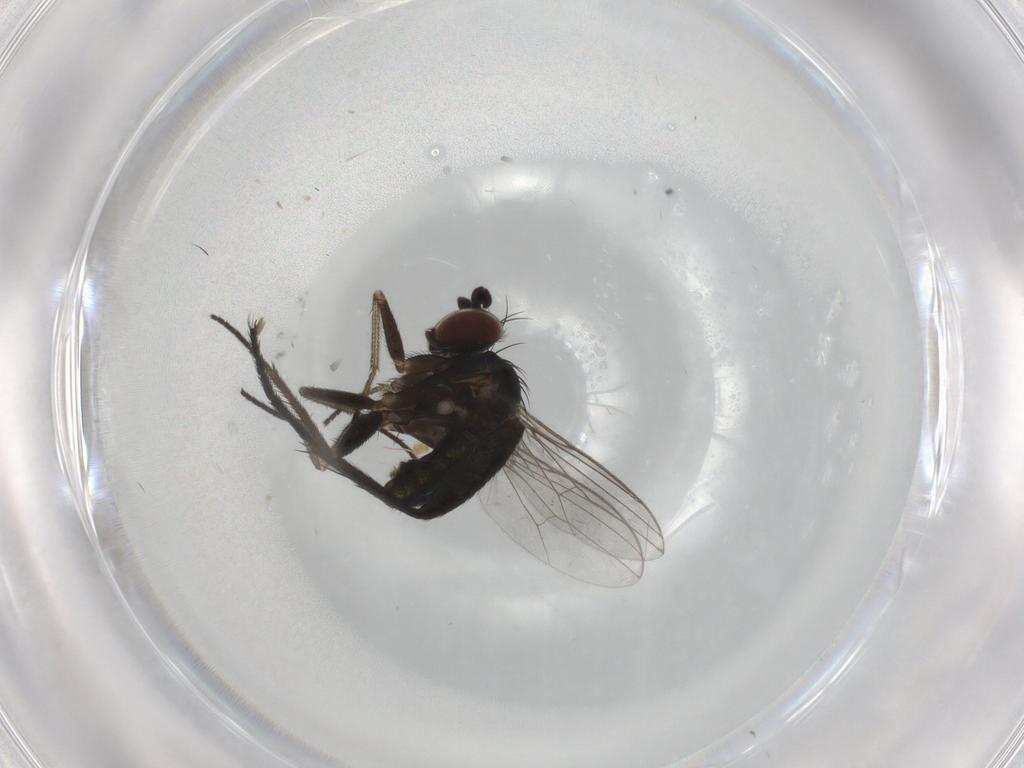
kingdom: Animalia
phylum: Arthropoda
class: Insecta
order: Diptera
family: Dolichopodidae
